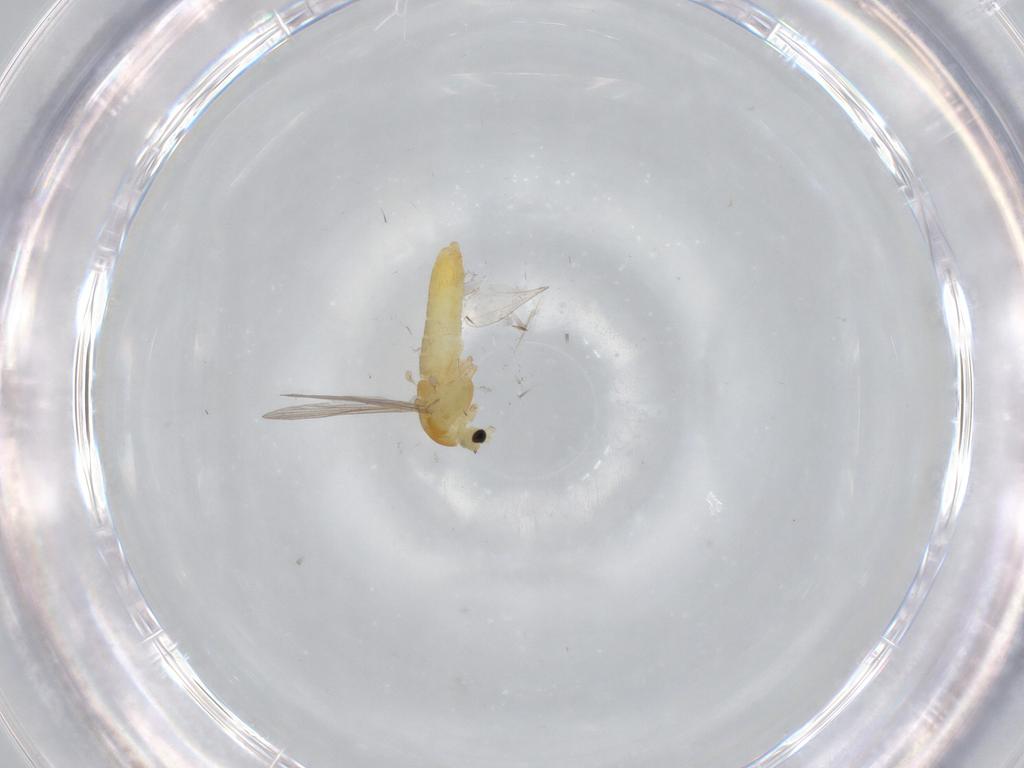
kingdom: Animalia
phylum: Arthropoda
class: Insecta
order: Diptera
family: Chironomidae
